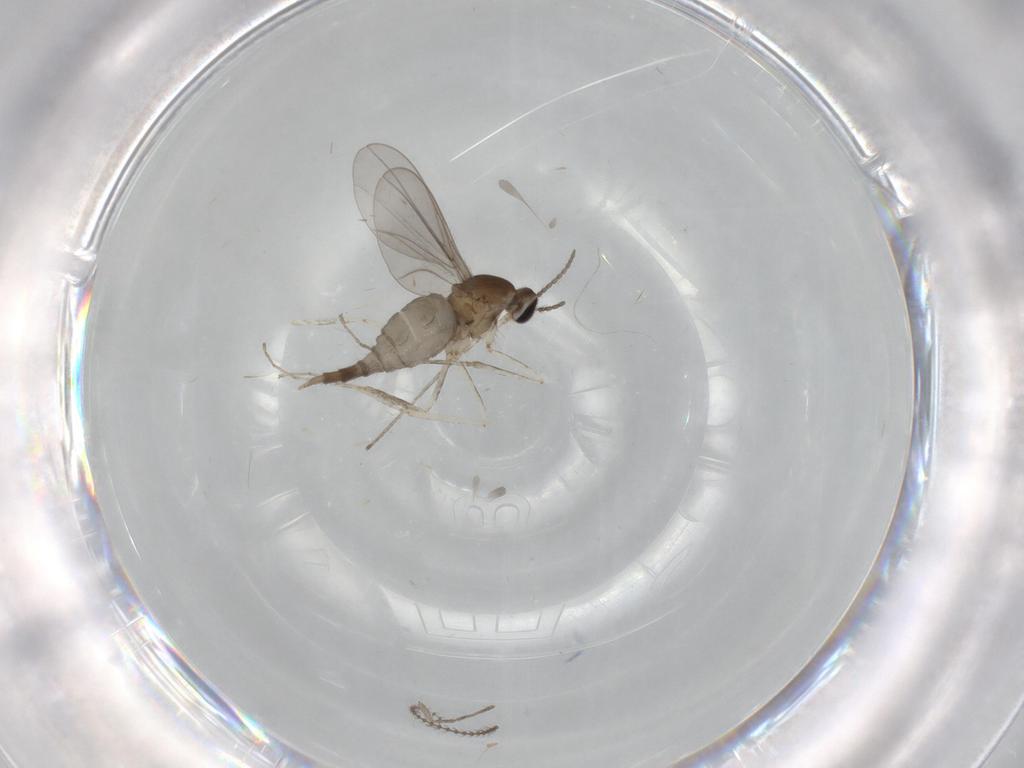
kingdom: Animalia
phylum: Arthropoda
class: Insecta
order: Diptera
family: Cecidomyiidae
